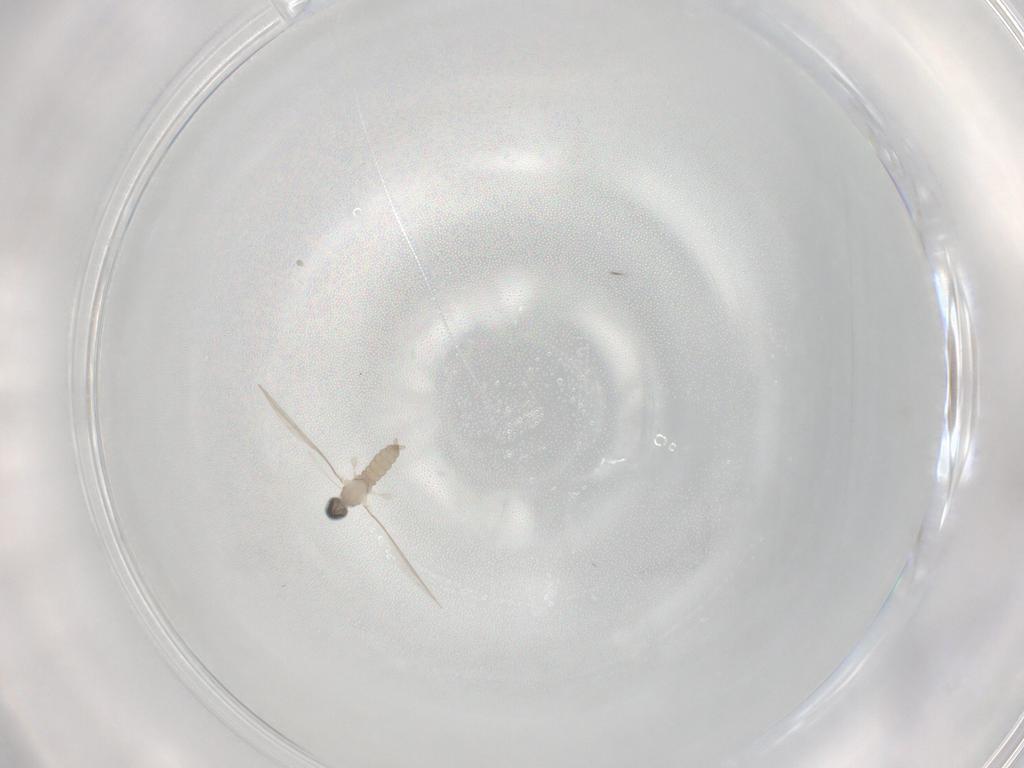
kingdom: Animalia
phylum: Arthropoda
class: Insecta
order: Diptera
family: Cecidomyiidae
